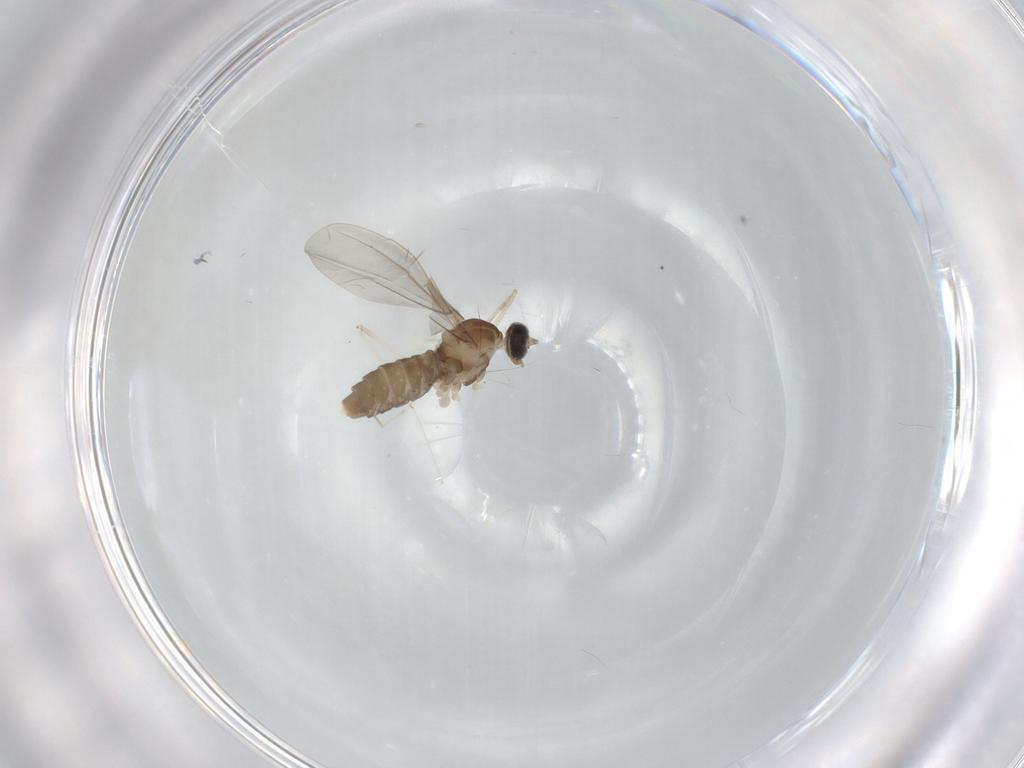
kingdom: Animalia
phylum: Arthropoda
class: Insecta
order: Diptera
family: Cecidomyiidae
